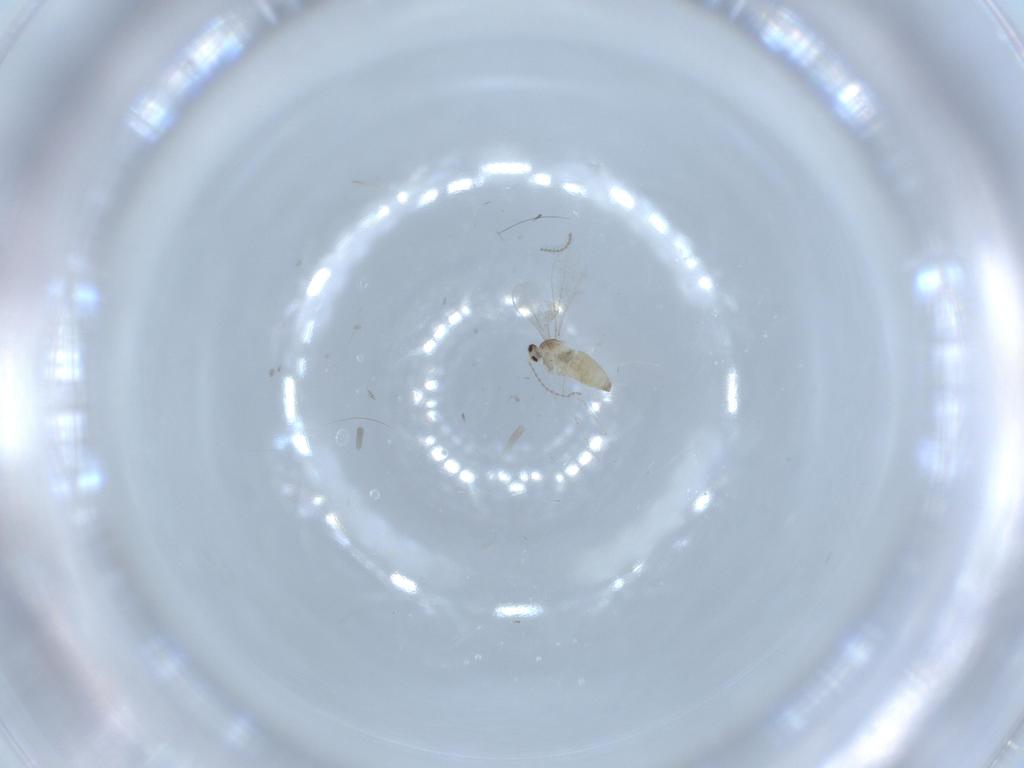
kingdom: Animalia
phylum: Arthropoda
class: Insecta
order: Diptera
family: Cecidomyiidae
